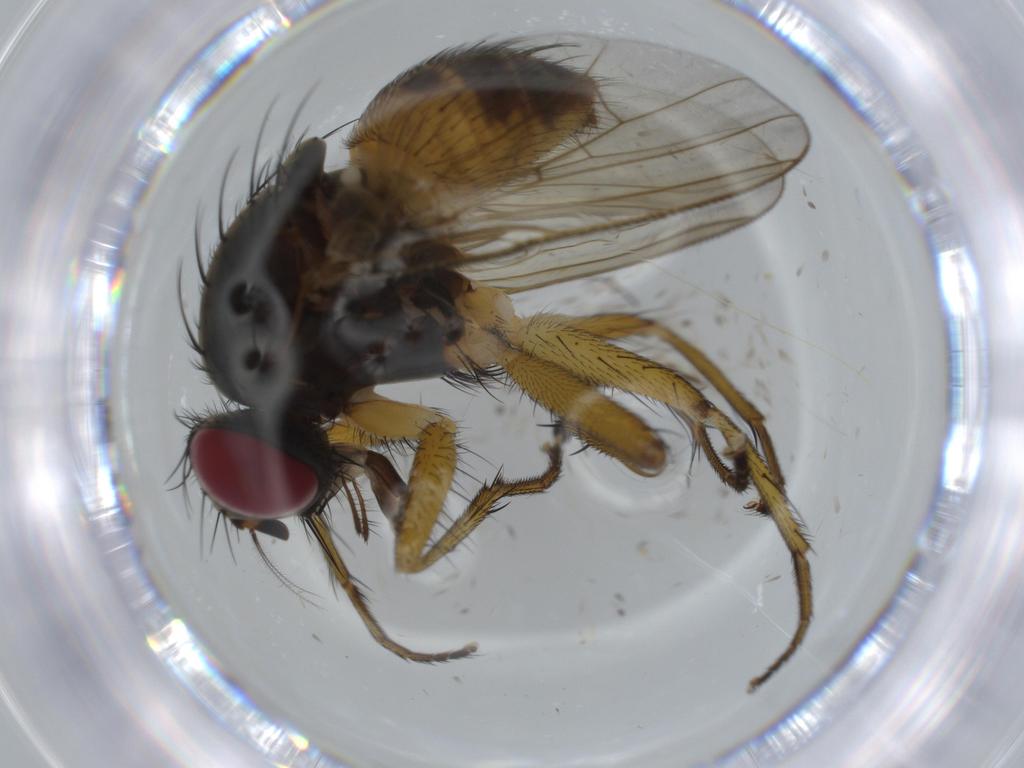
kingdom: Animalia
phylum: Arthropoda
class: Insecta
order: Diptera
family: Muscidae
